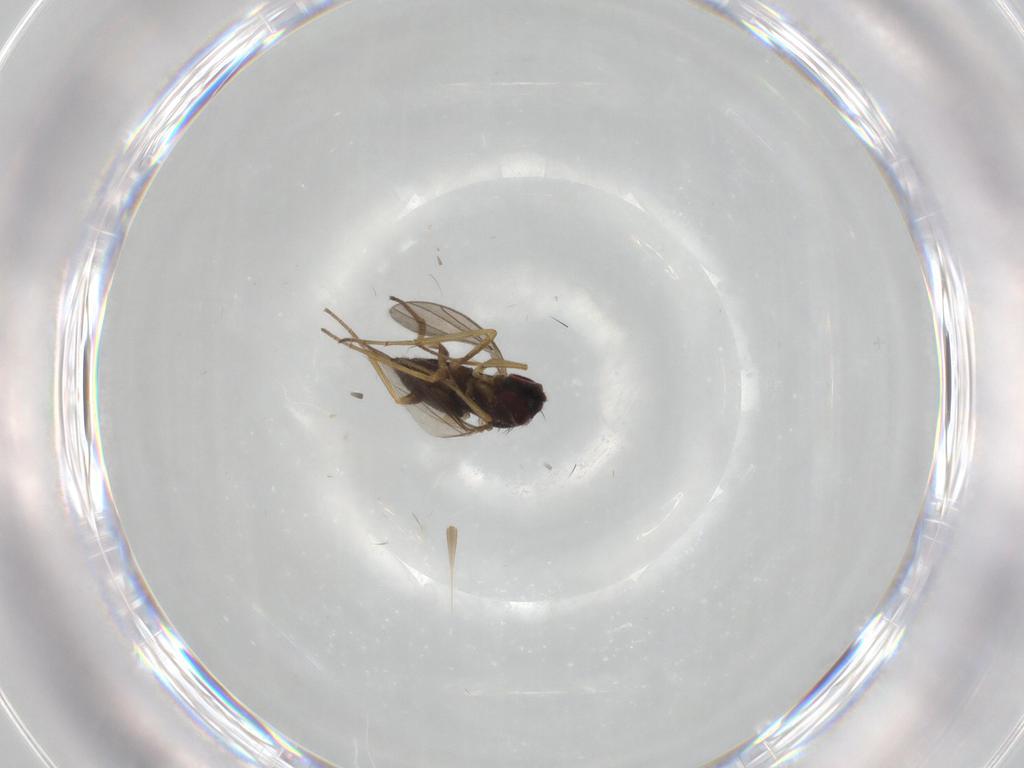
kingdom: Animalia
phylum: Arthropoda
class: Insecta
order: Diptera
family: Dolichopodidae
